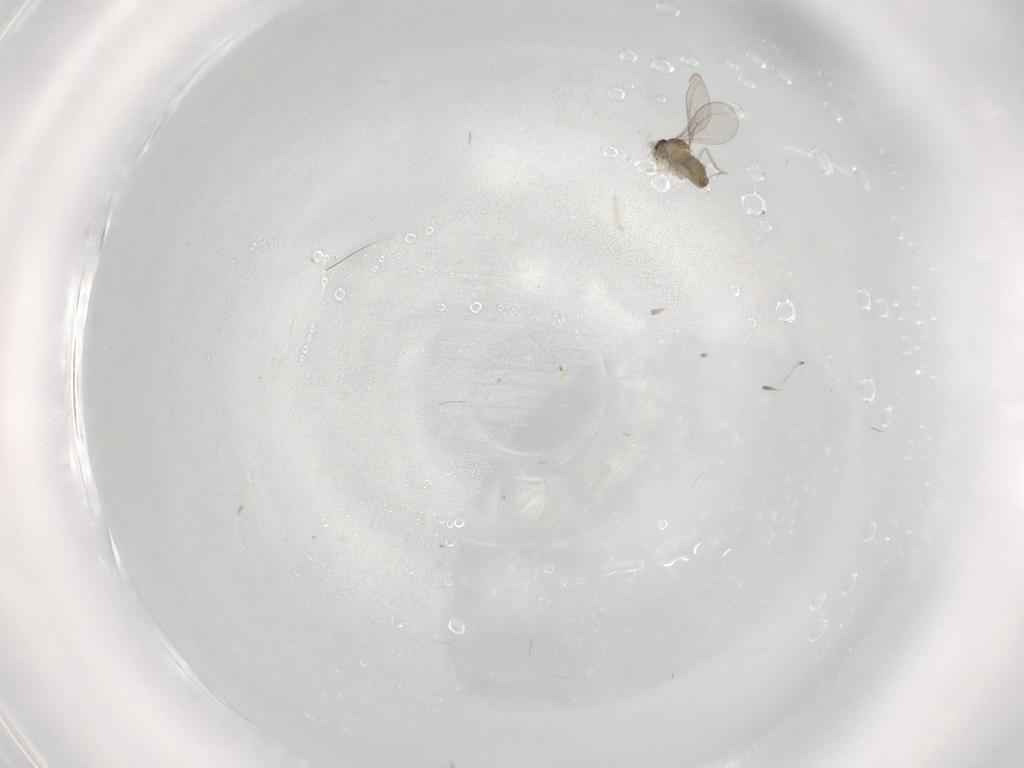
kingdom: Animalia
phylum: Arthropoda
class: Insecta
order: Diptera
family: Cecidomyiidae
